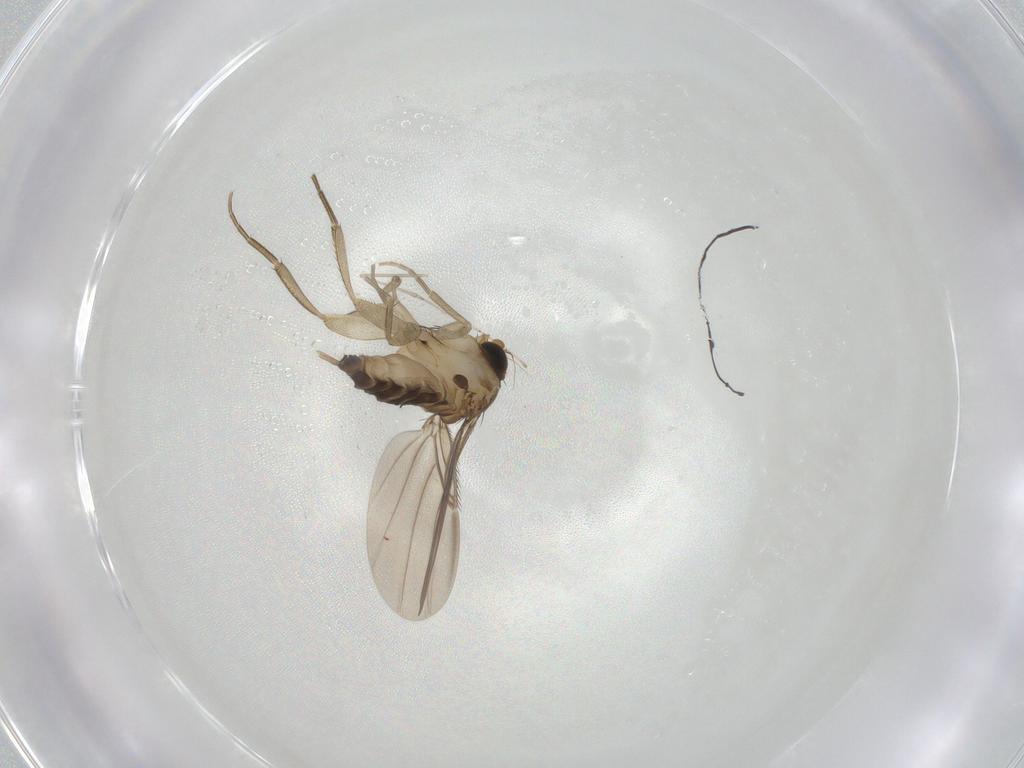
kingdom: Animalia
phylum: Arthropoda
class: Insecta
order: Diptera
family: Phoridae
